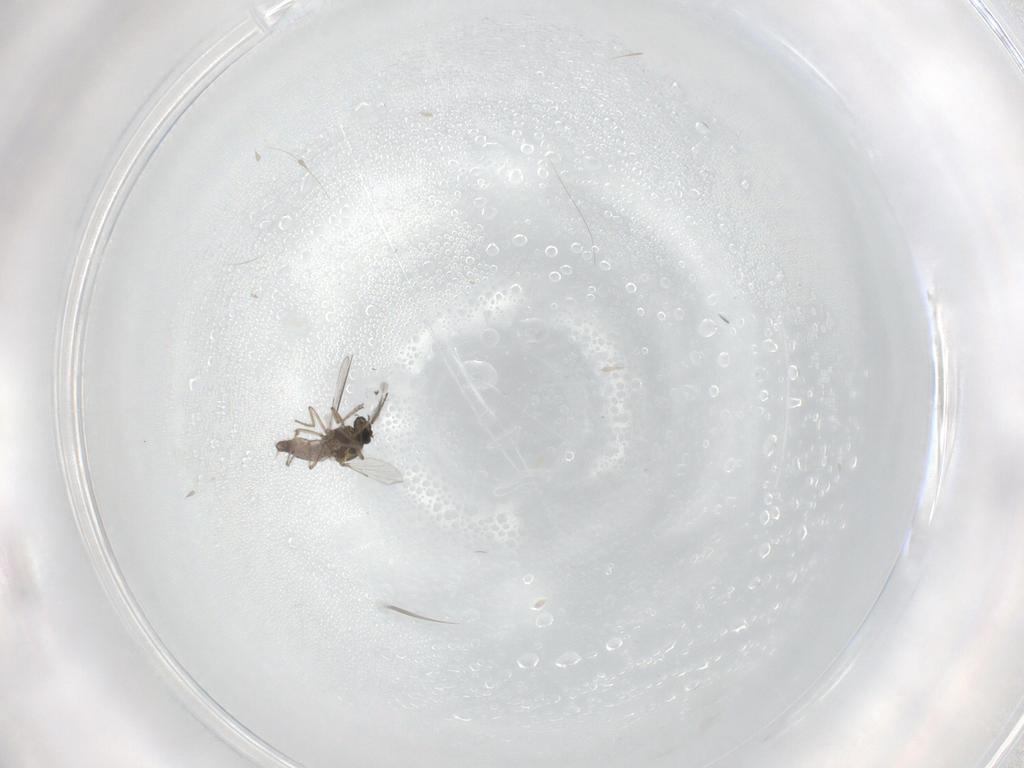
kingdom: Animalia
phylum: Arthropoda
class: Insecta
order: Diptera
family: Ceratopogonidae
